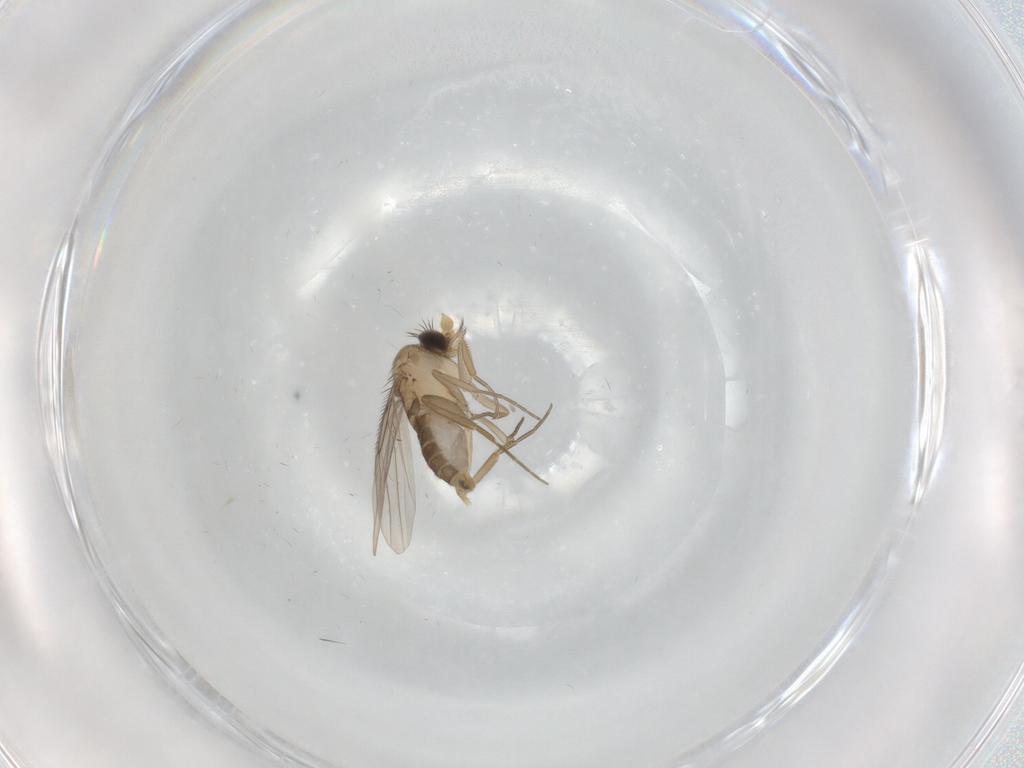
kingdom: Animalia
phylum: Arthropoda
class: Insecta
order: Diptera
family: Phoridae
